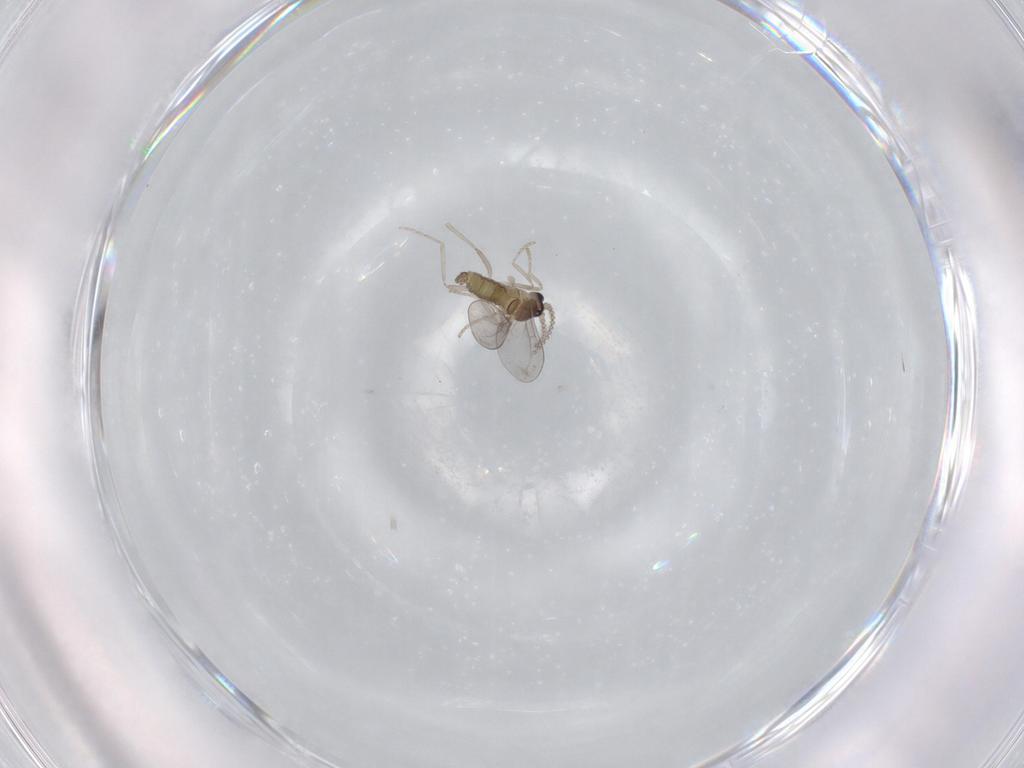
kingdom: Animalia
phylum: Arthropoda
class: Insecta
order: Diptera
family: Cecidomyiidae
